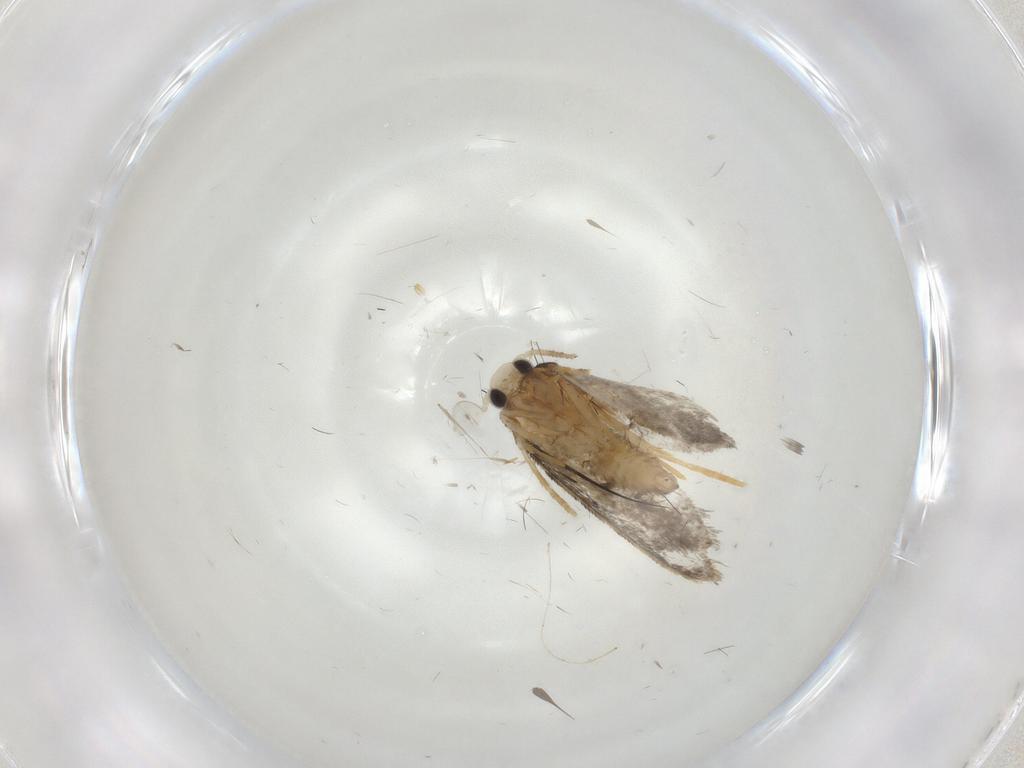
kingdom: Animalia
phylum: Arthropoda
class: Insecta
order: Lepidoptera
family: Psychidae
